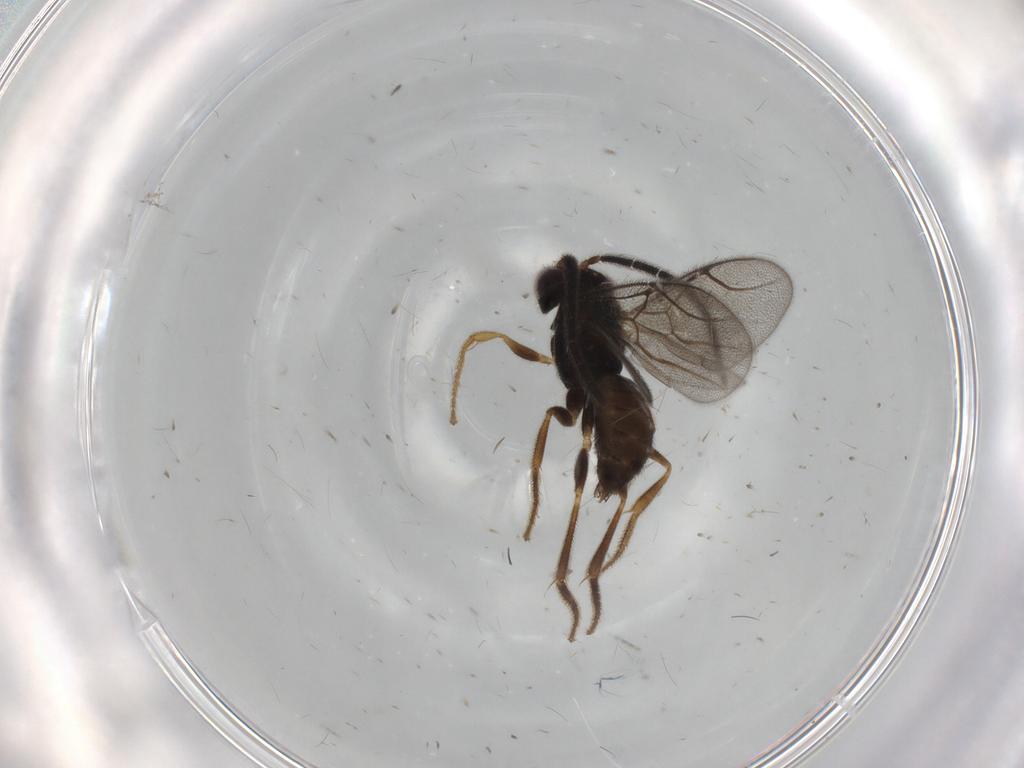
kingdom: Animalia
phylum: Arthropoda
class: Insecta
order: Hymenoptera
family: Dryinidae
